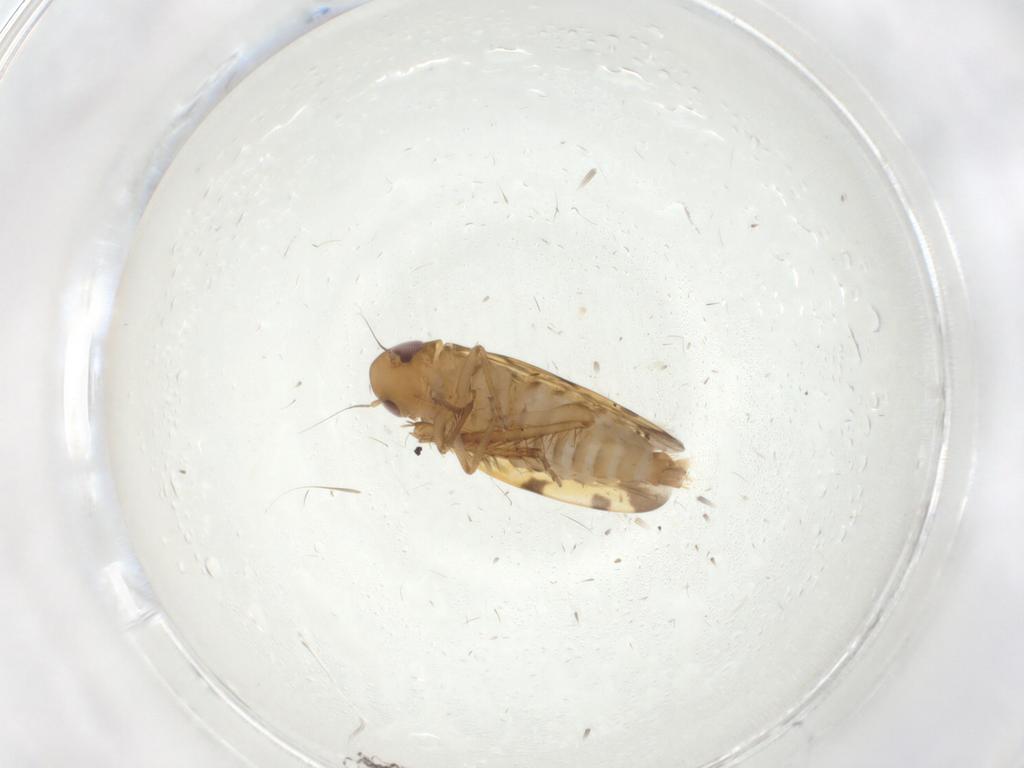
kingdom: Animalia
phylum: Arthropoda
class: Insecta
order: Hemiptera
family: Cicadellidae
